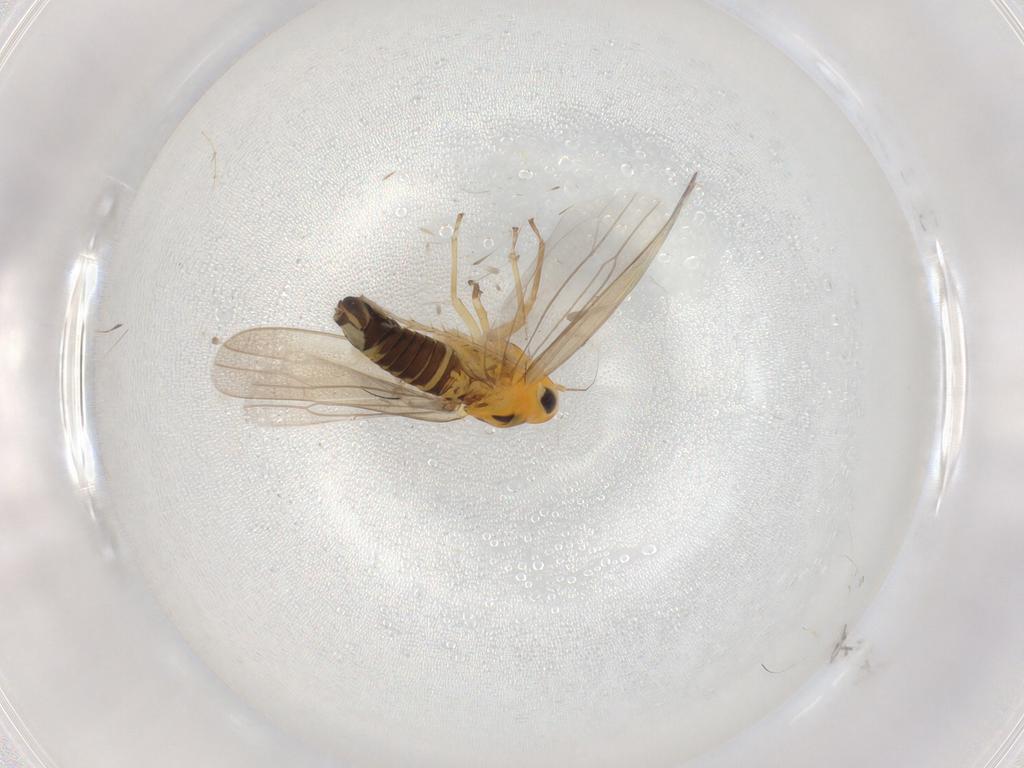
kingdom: Animalia
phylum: Arthropoda
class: Insecta
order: Hemiptera
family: Cicadellidae
